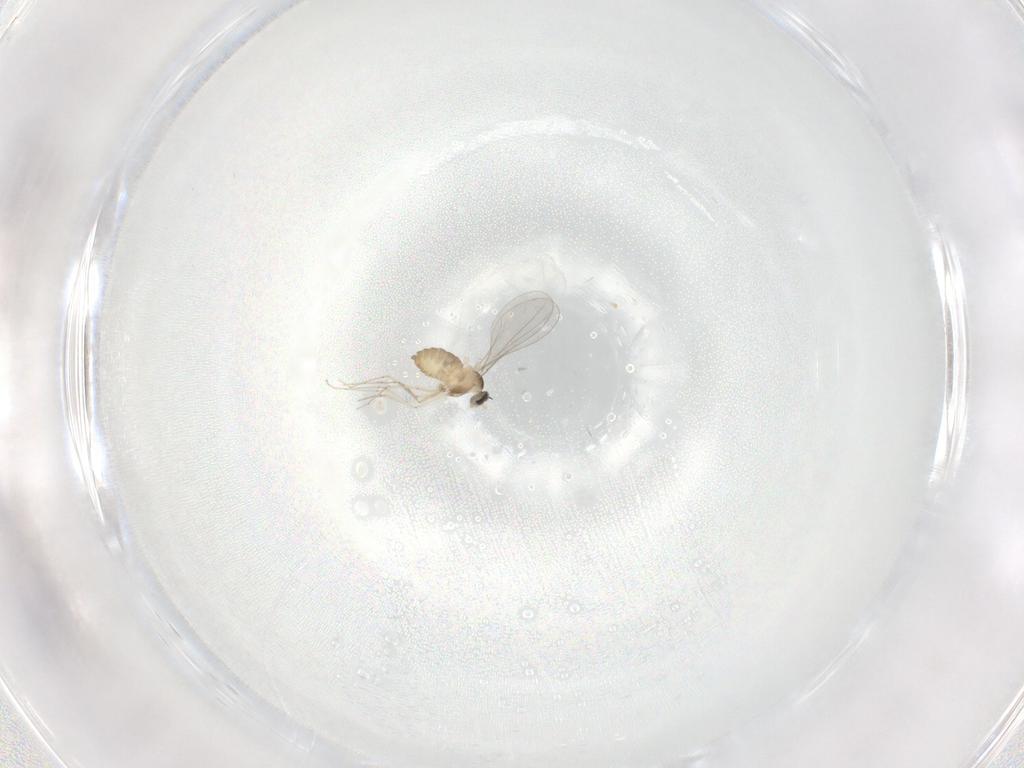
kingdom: Animalia
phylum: Arthropoda
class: Insecta
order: Diptera
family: Cecidomyiidae
